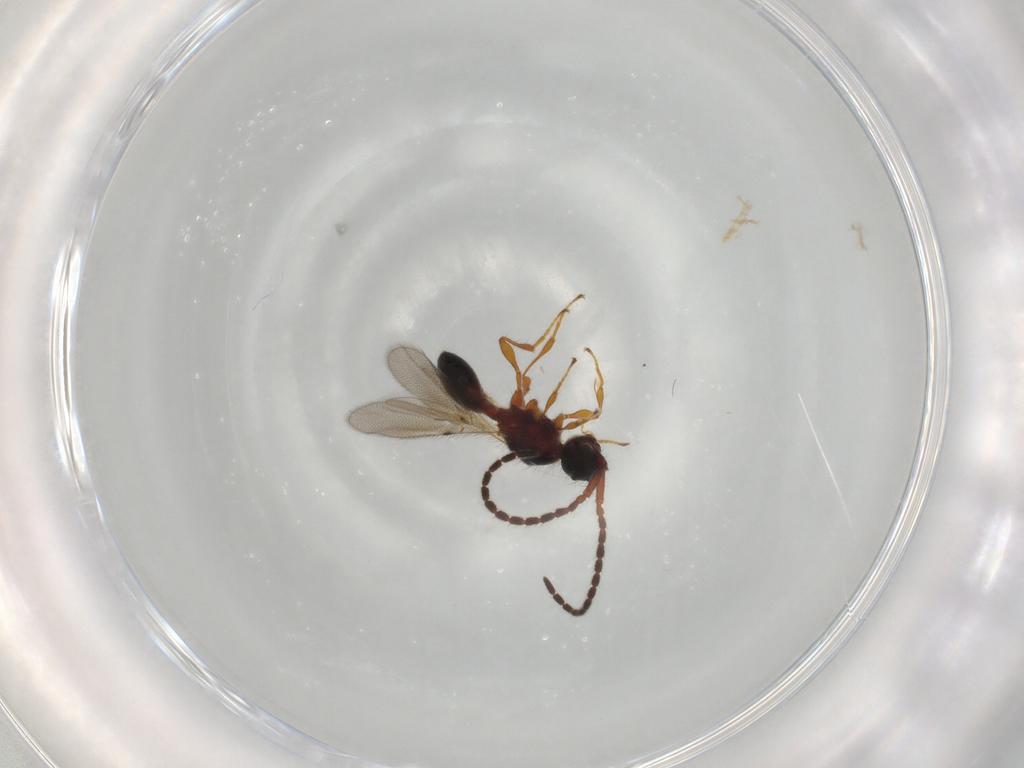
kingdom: Animalia
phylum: Arthropoda
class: Insecta
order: Hymenoptera
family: Diapriidae
